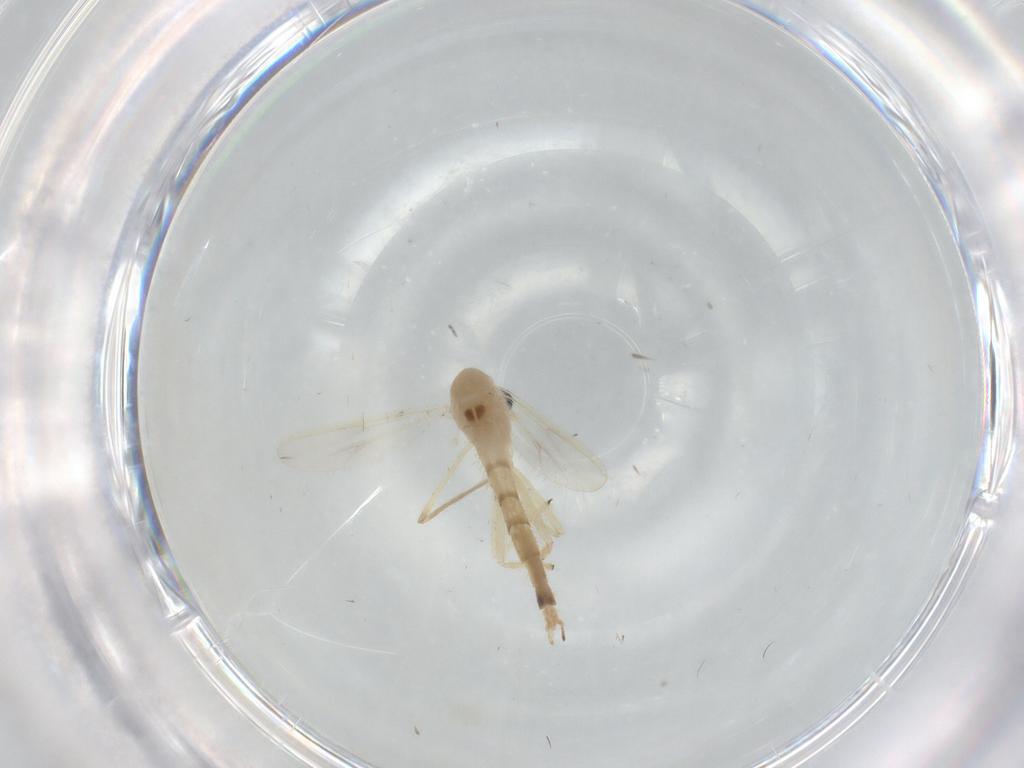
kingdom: Animalia
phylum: Arthropoda
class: Insecta
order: Diptera
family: Chironomidae
